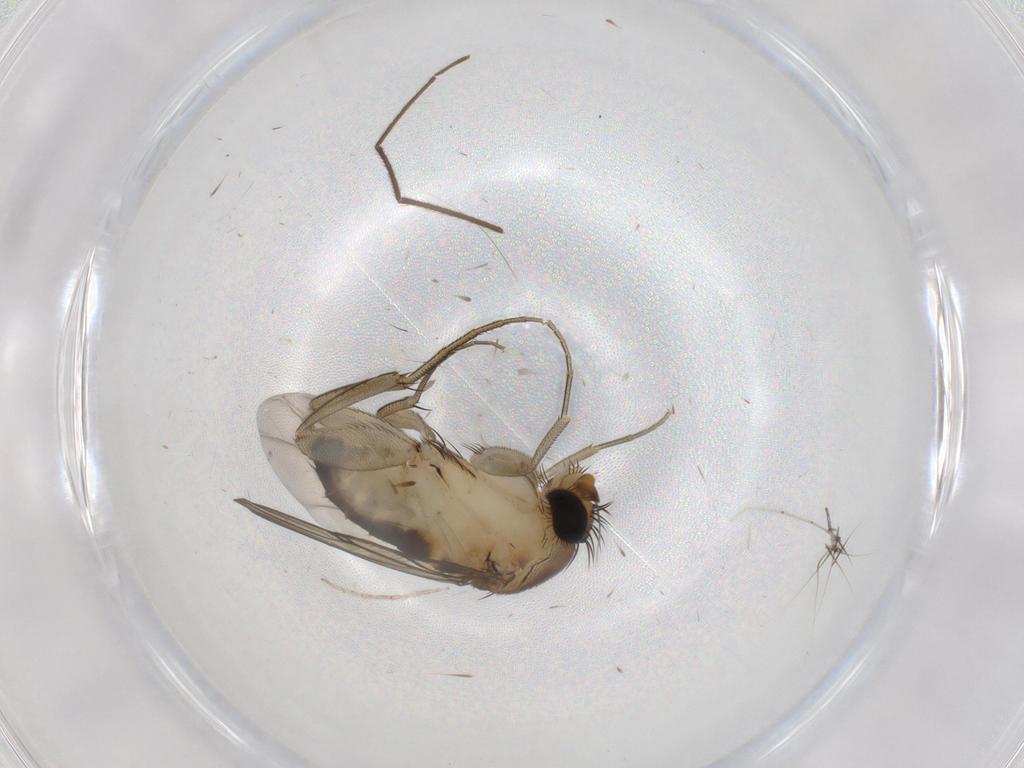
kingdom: Animalia
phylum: Arthropoda
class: Insecta
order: Diptera
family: Phoridae
